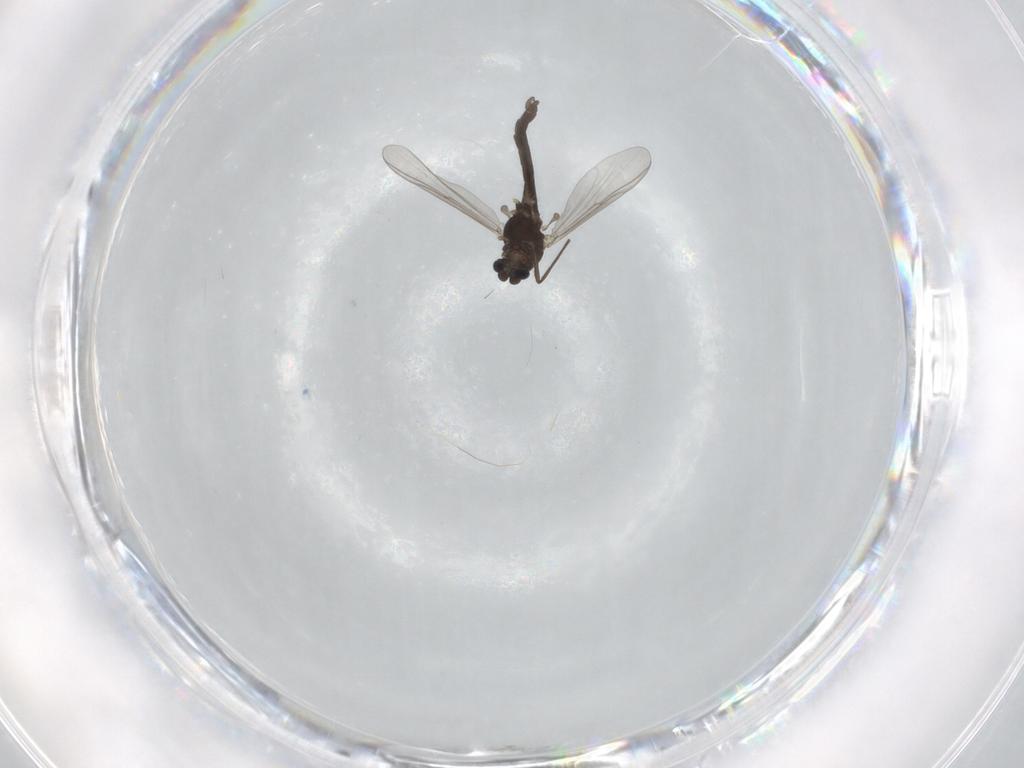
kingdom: Animalia
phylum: Arthropoda
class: Insecta
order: Diptera
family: Chironomidae
